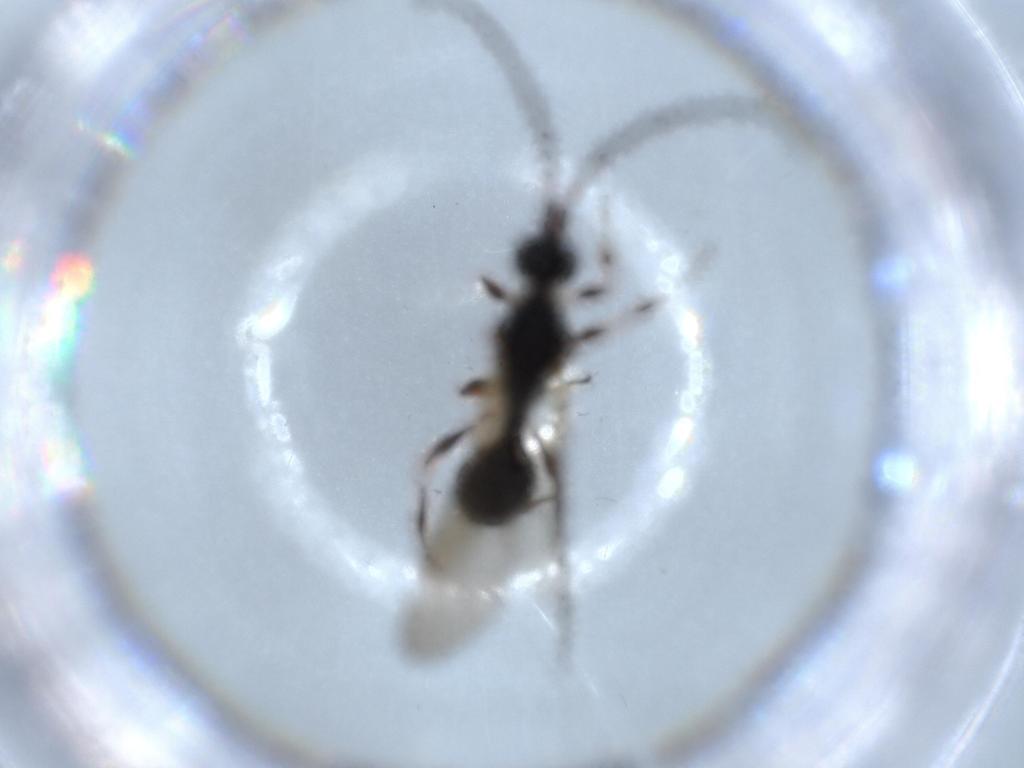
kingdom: Animalia
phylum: Arthropoda
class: Insecta
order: Hymenoptera
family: Diapriidae
